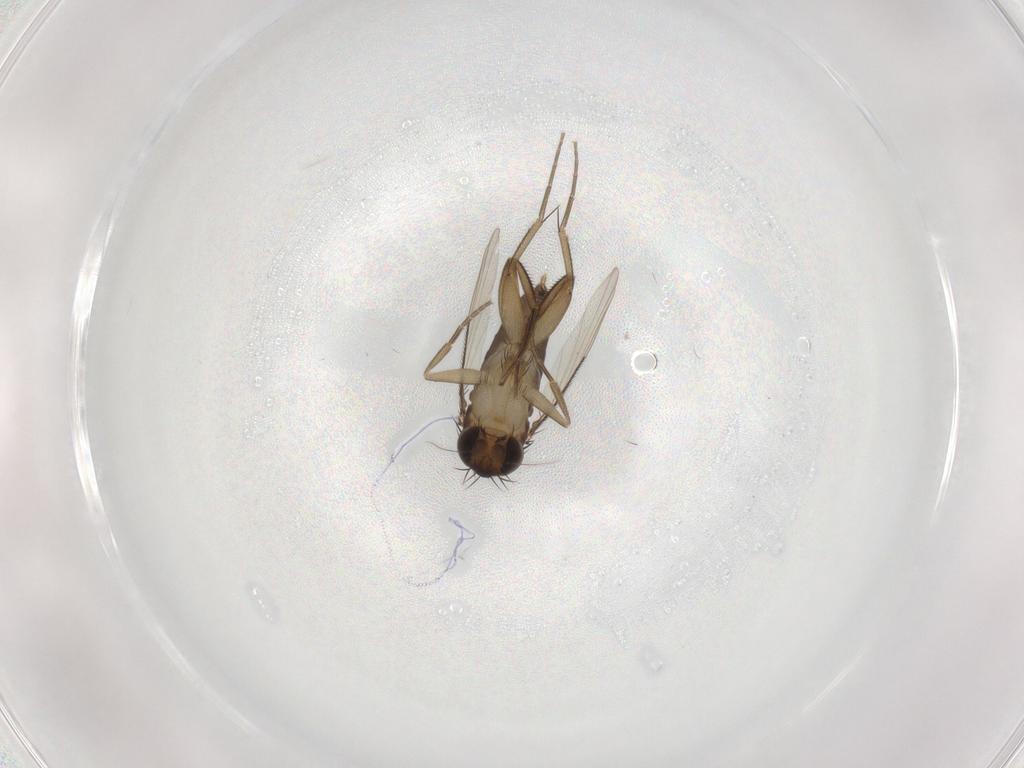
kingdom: Animalia
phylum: Arthropoda
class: Insecta
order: Diptera
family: Phoridae
